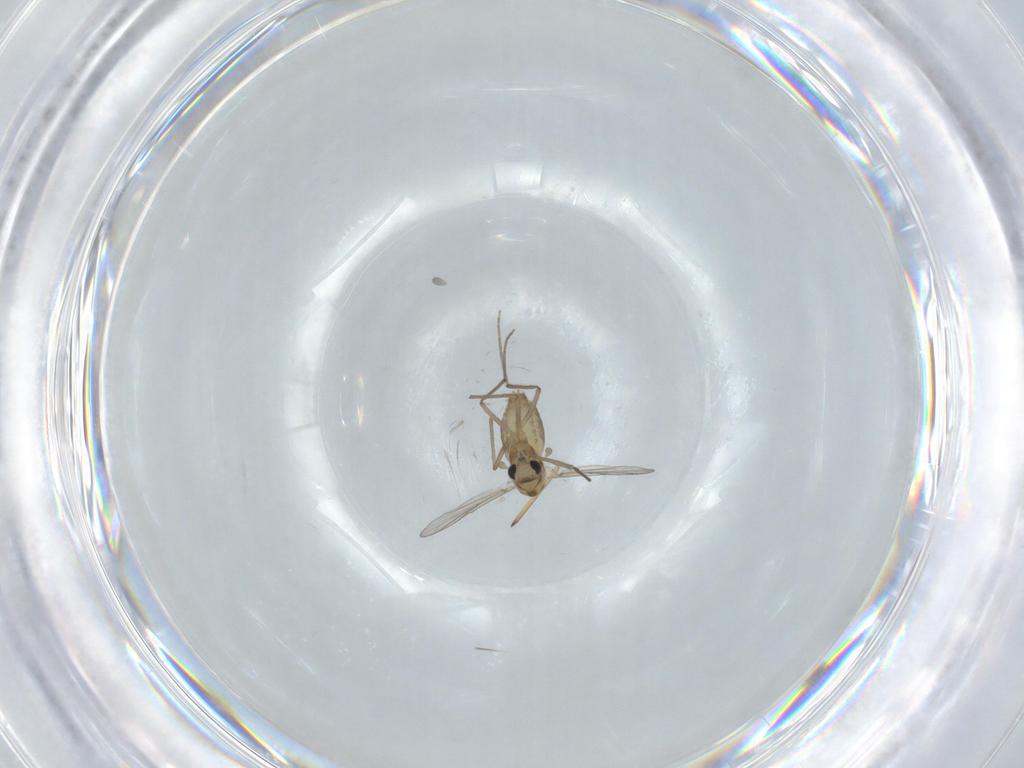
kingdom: Animalia
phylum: Arthropoda
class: Insecta
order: Diptera
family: Chironomidae
